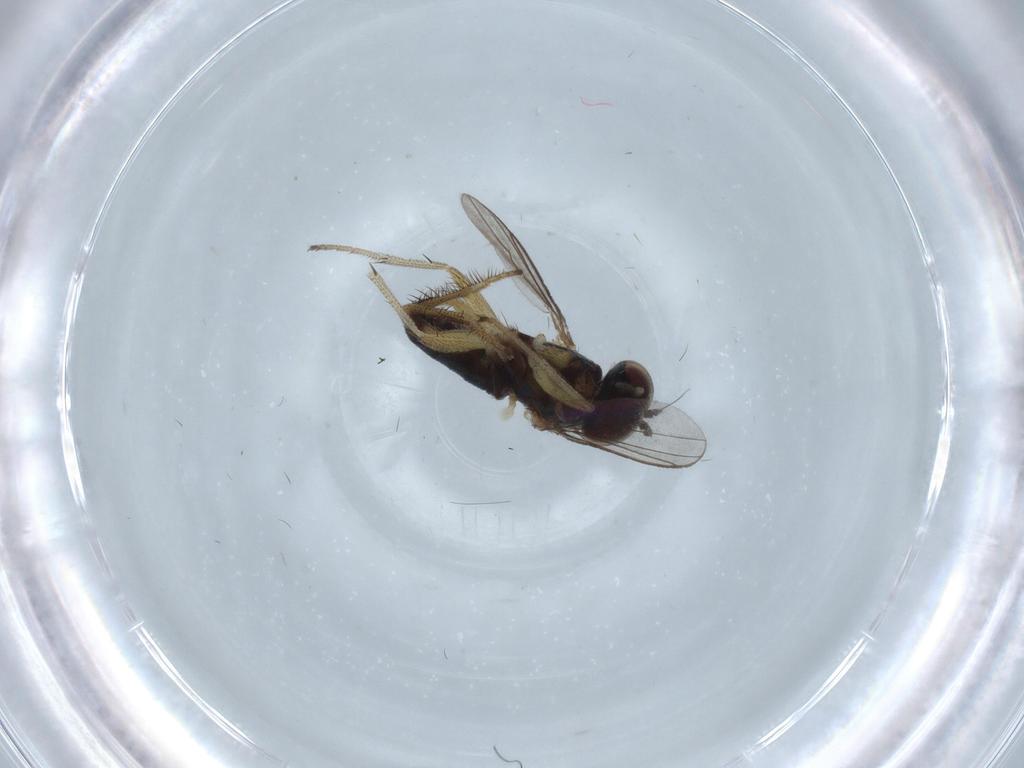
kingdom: Animalia
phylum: Arthropoda
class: Insecta
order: Diptera
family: Dolichopodidae
